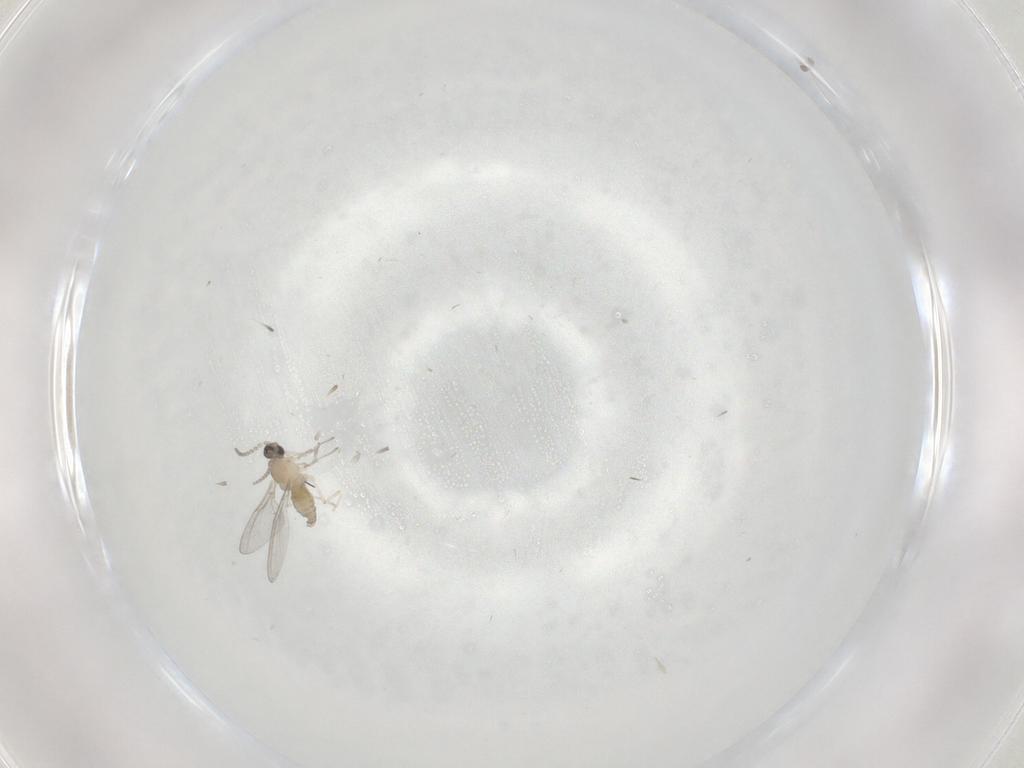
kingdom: Animalia
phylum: Arthropoda
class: Insecta
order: Diptera
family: Cecidomyiidae
